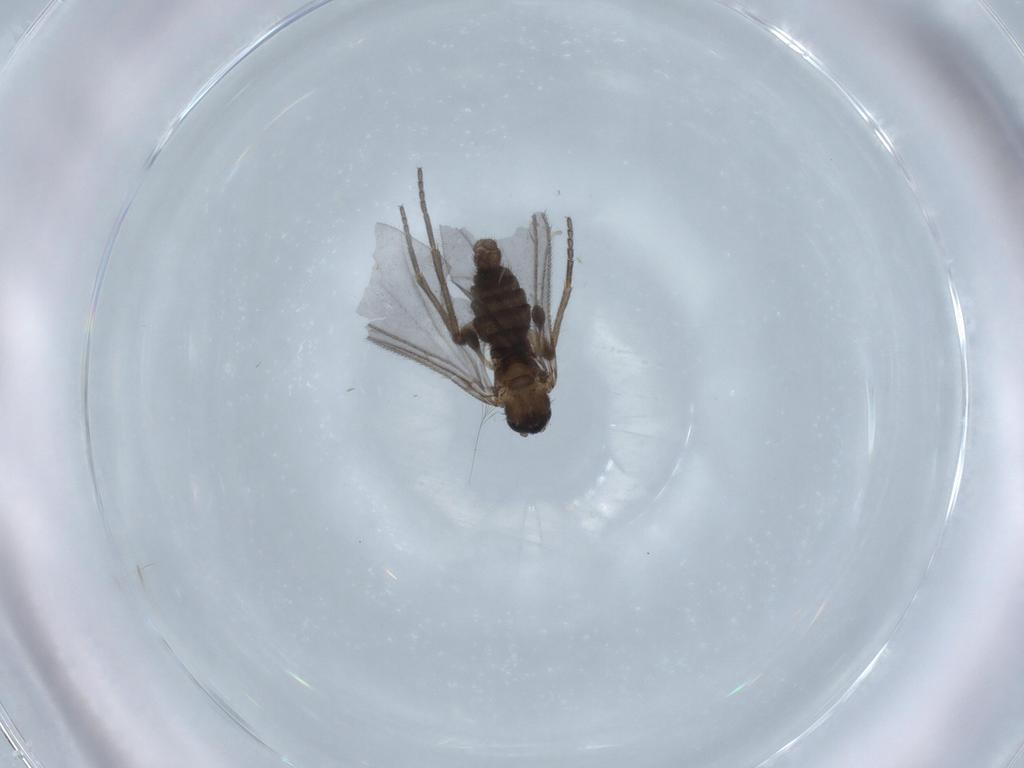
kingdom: Animalia
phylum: Arthropoda
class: Insecta
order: Diptera
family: Sciaridae
